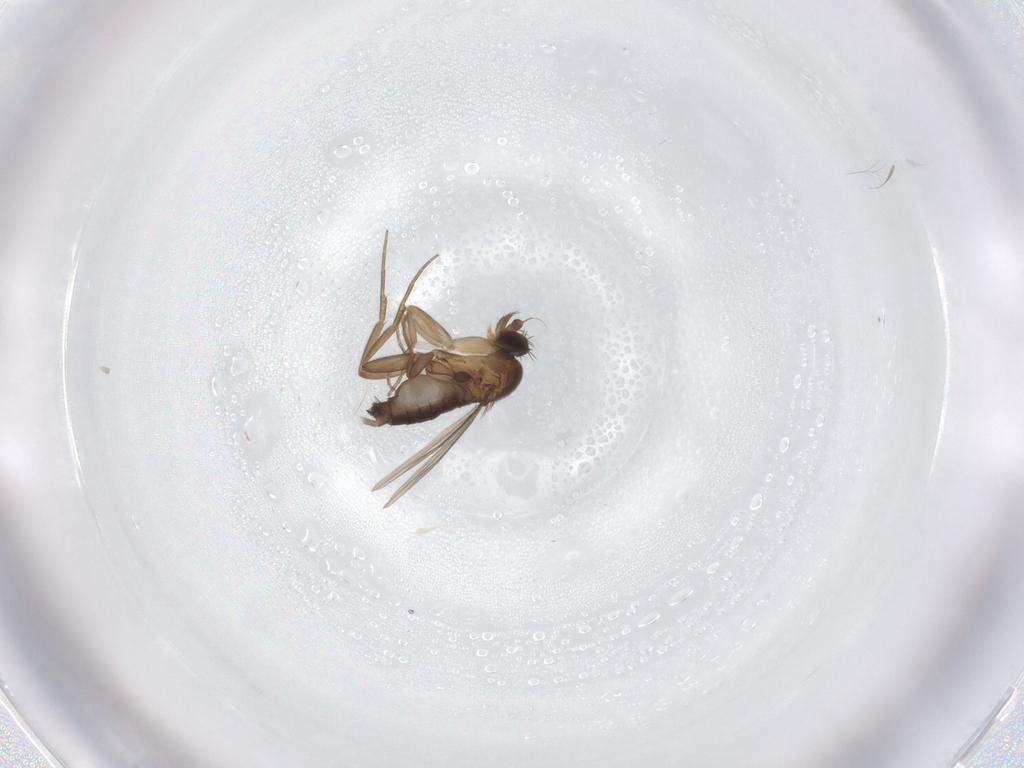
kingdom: Animalia
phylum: Arthropoda
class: Insecta
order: Diptera
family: Phoridae
